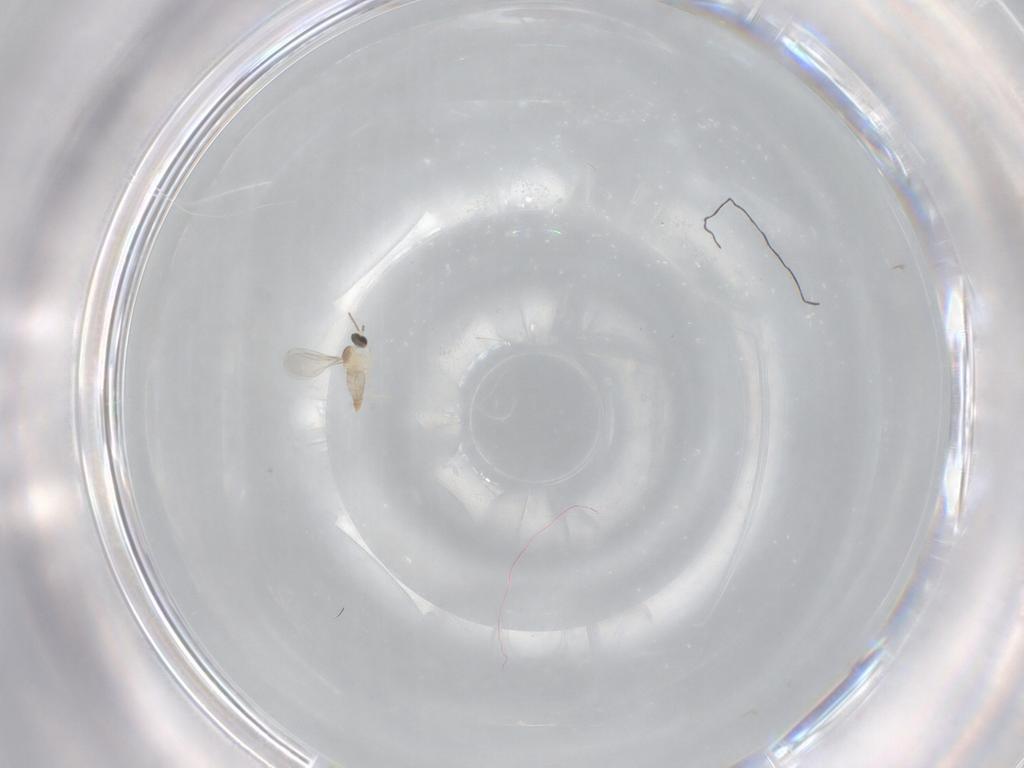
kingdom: Animalia
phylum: Arthropoda
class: Insecta
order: Diptera
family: Cecidomyiidae
